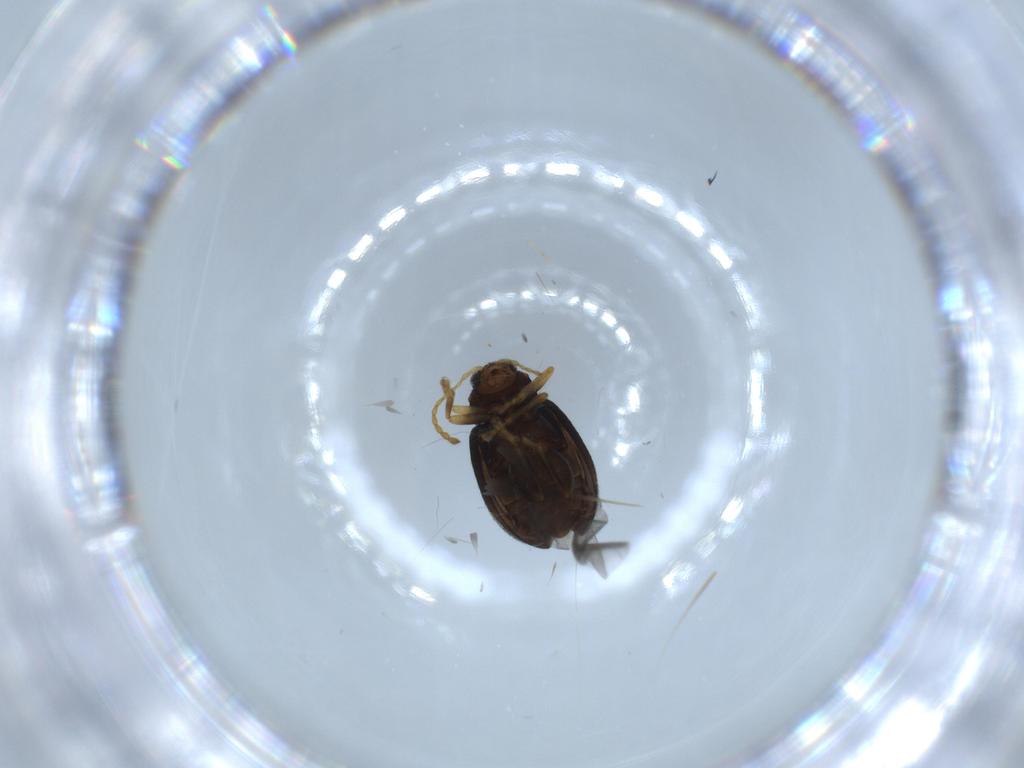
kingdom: Animalia
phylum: Arthropoda
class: Insecta
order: Coleoptera
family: Chrysomelidae
